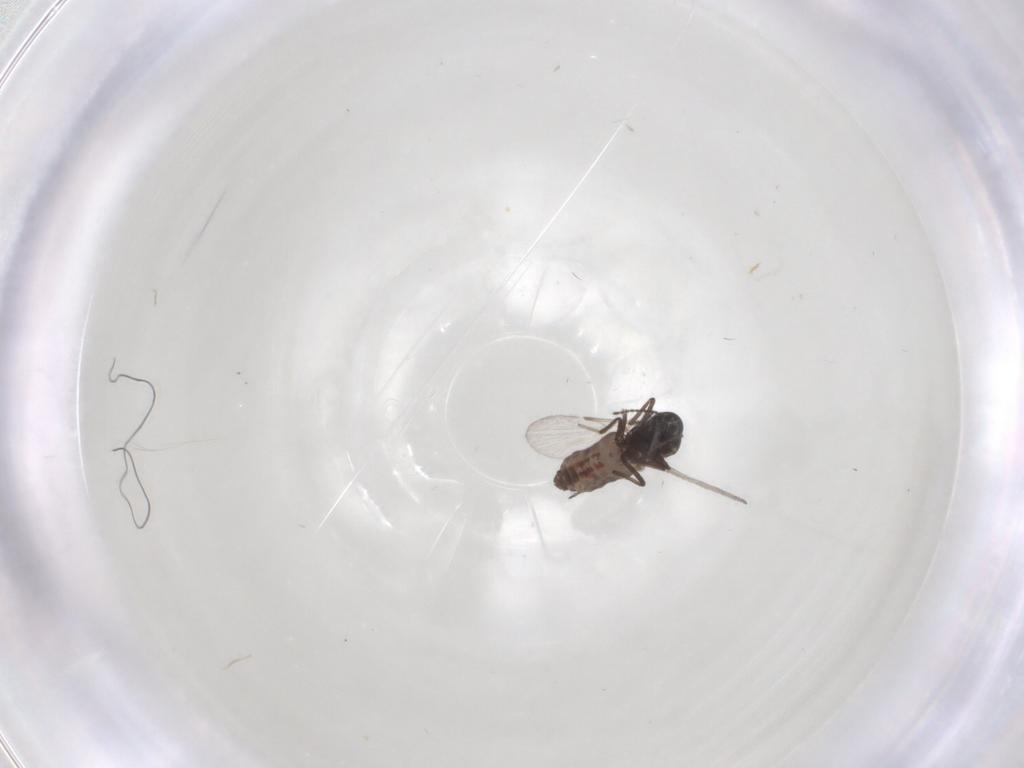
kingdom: Animalia
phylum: Arthropoda
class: Insecta
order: Diptera
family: Ceratopogonidae
